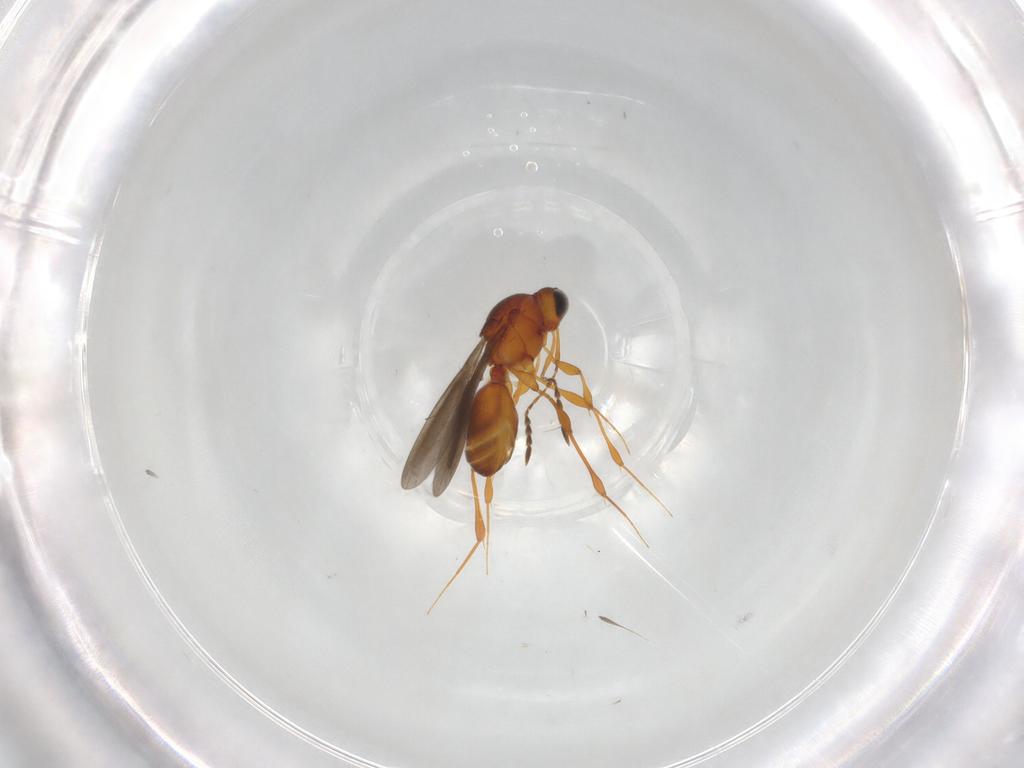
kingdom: Animalia
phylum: Arthropoda
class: Insecta
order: Hymenoptera
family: Platygastridae
